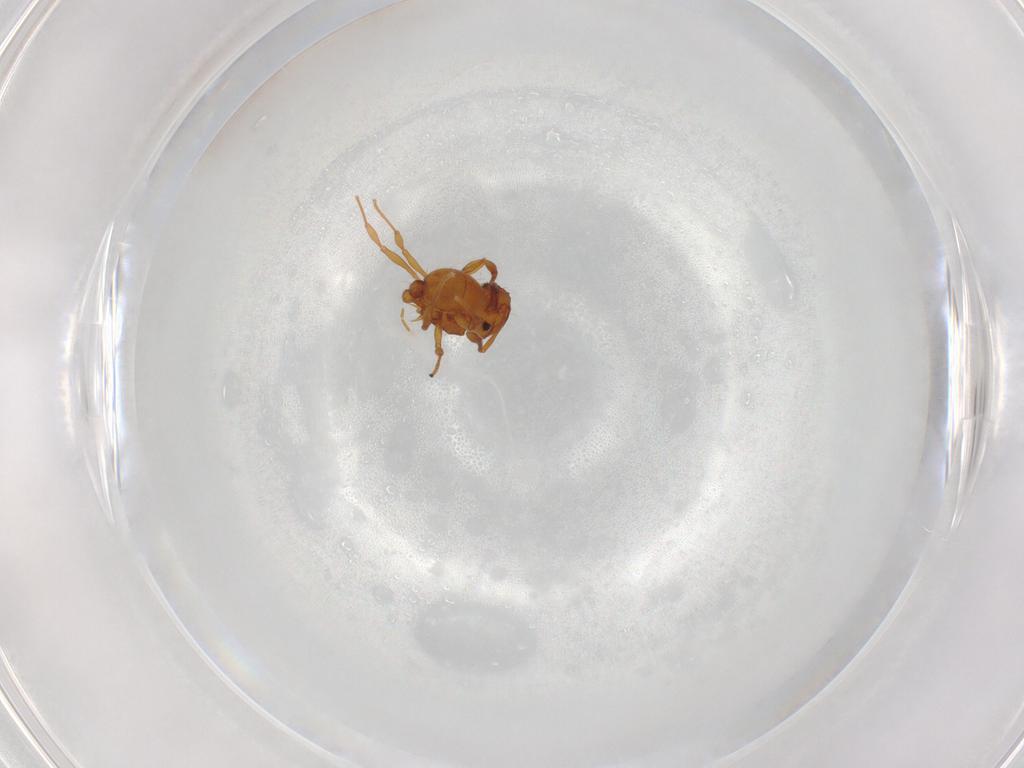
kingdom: Animalia
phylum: Arthropoda
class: Insecta
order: Hymenoptera
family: Formicidae
